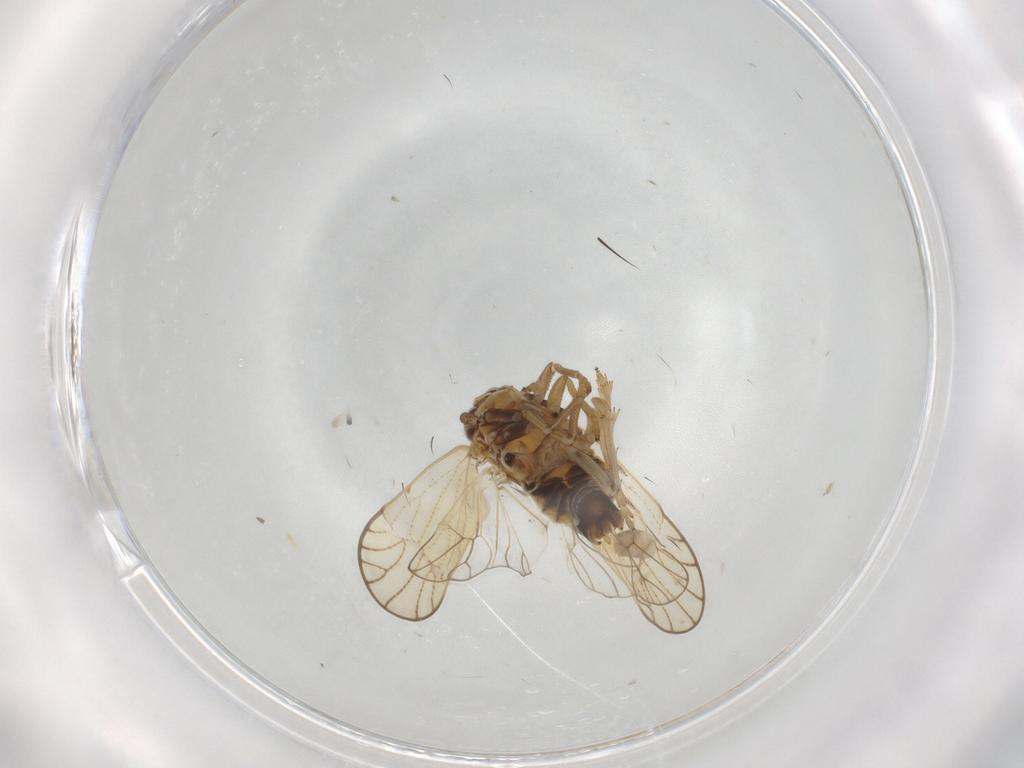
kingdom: Animalia
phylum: Arthropoda
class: Insecta
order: Hemiptera
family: Delphacidae
